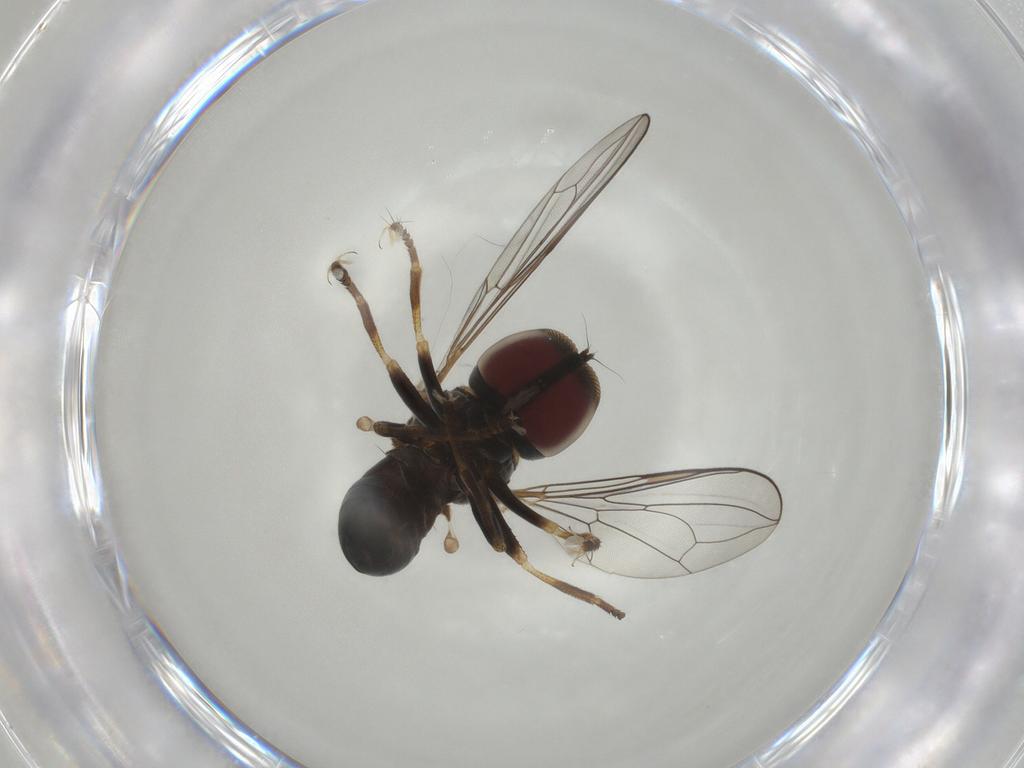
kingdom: Animalia
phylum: Arthropoda
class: Insecta
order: Diptera
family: Pipunculidae
